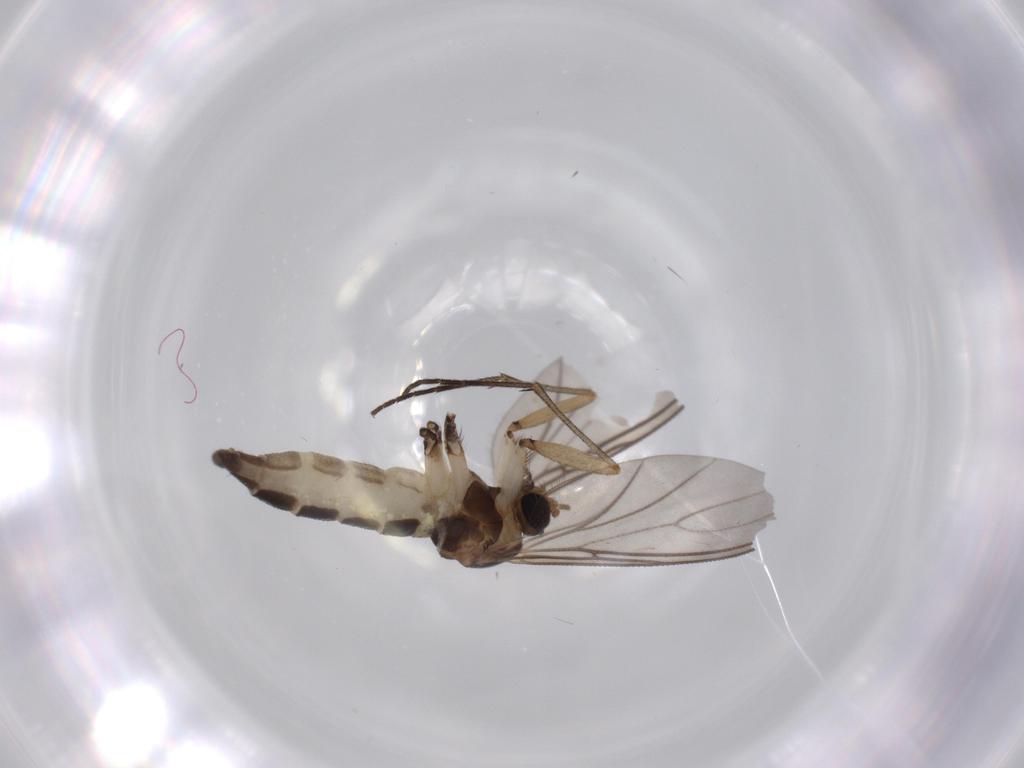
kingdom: Animalia
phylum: Arthropoda
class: Insecta
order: Diptera
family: Sciaridae
